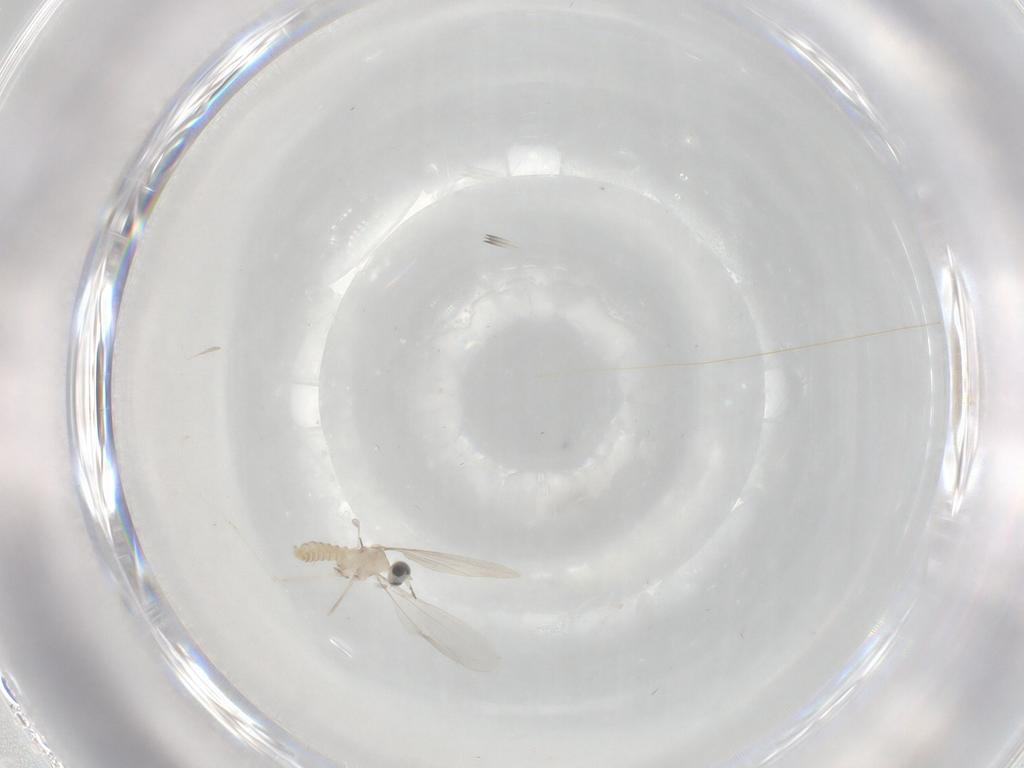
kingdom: Animalia
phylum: Arthropoda
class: Insecta
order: Diptera
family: Cecidomyiidae
